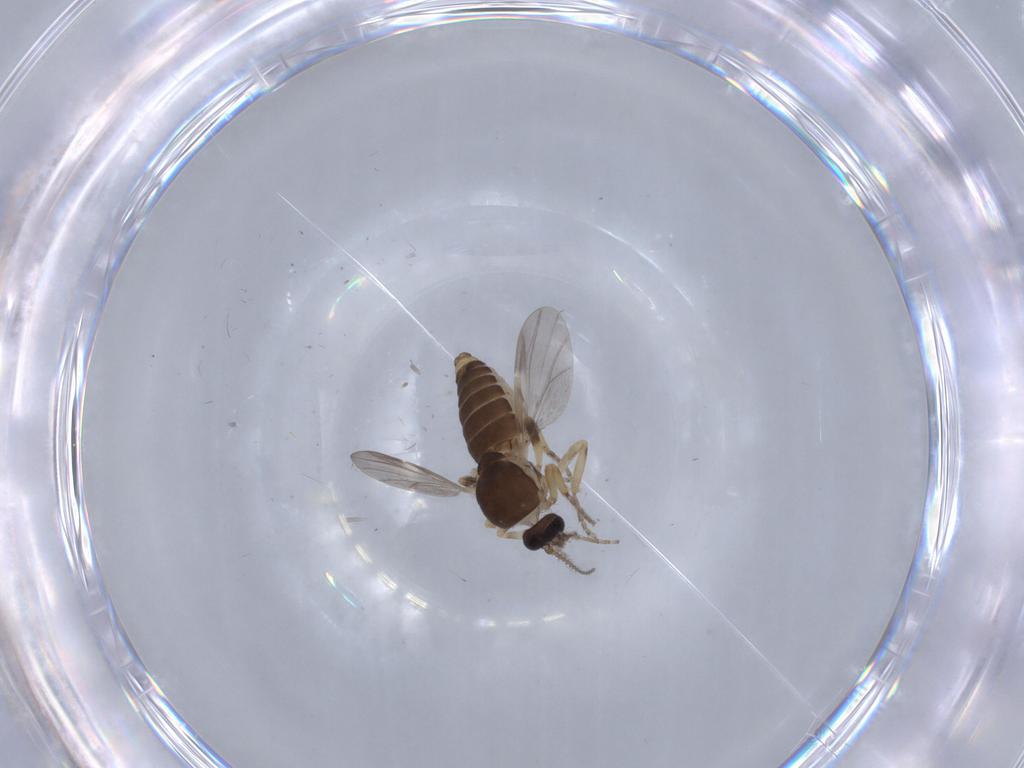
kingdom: Animalia
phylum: Arthropoda
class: Insecta
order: Diptera
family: Ceratopogonidae
